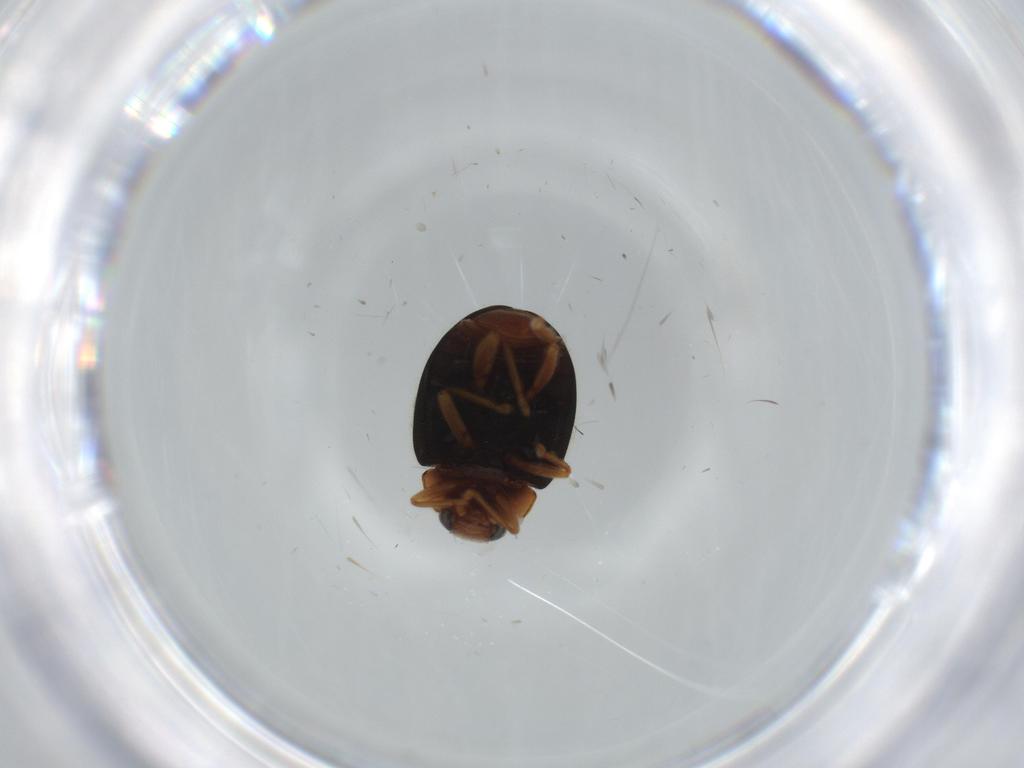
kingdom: Animalia
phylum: Arthropoda
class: Insecta
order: Coleoptera
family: Coccinellidae
